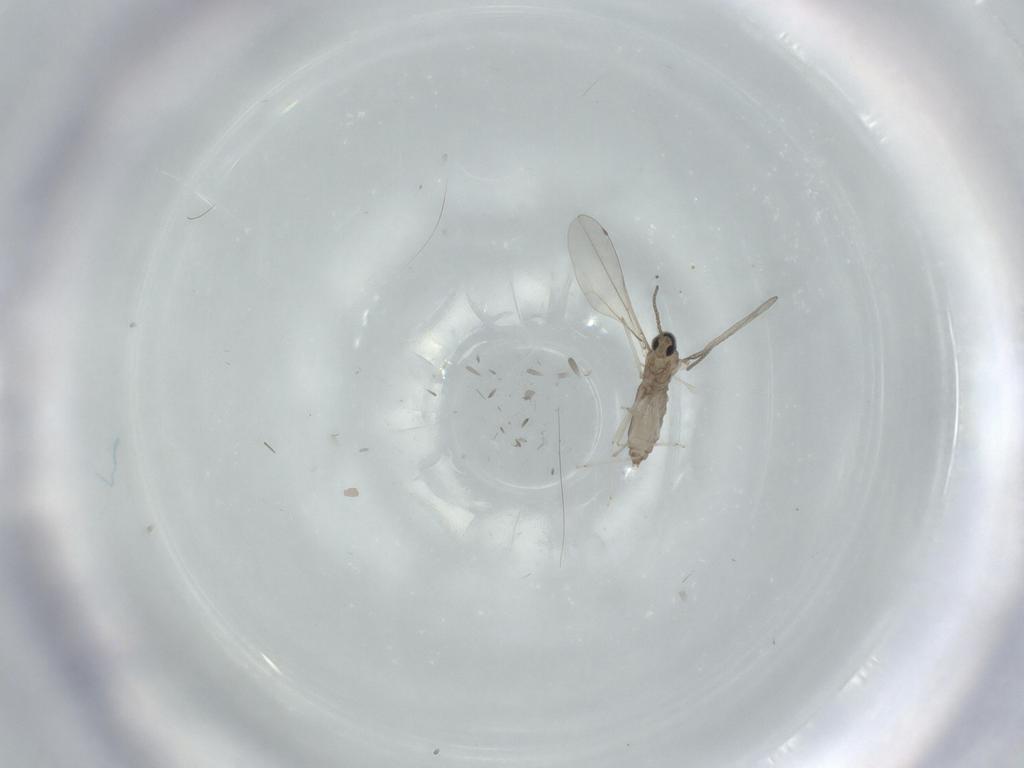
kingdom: Animalia
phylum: Arthropoda
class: Insecta
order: Diptera
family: Cecidomyiidae
